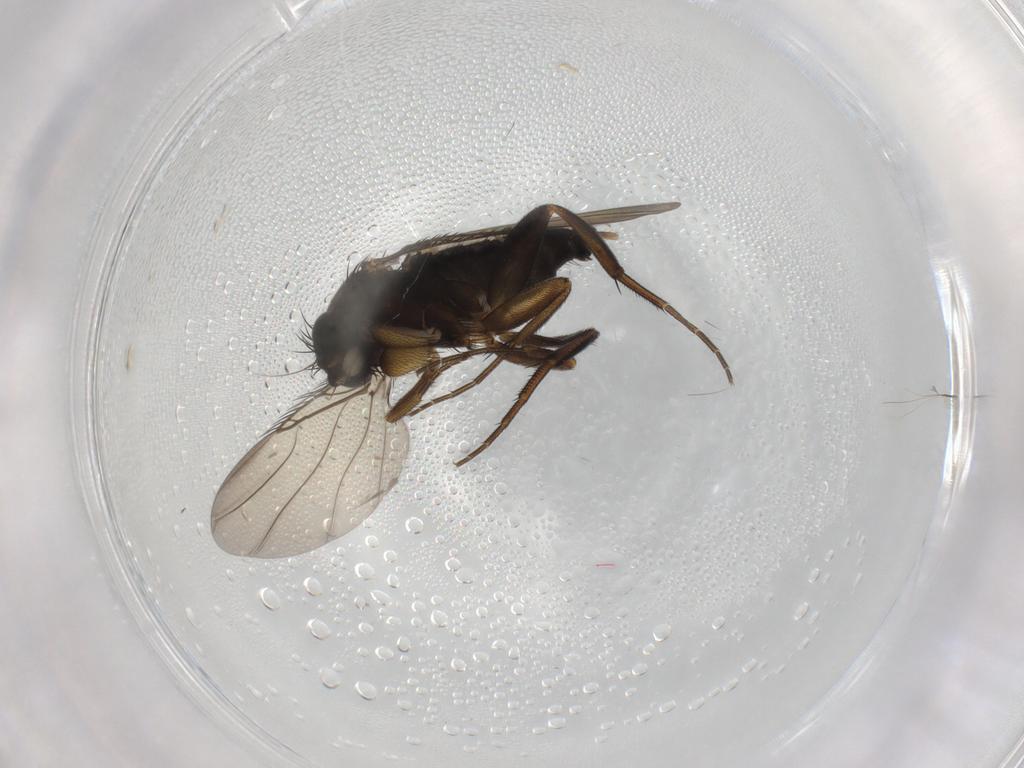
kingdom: Animalia
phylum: Arthropoda
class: Insecta
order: Diptera
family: Phoridae
